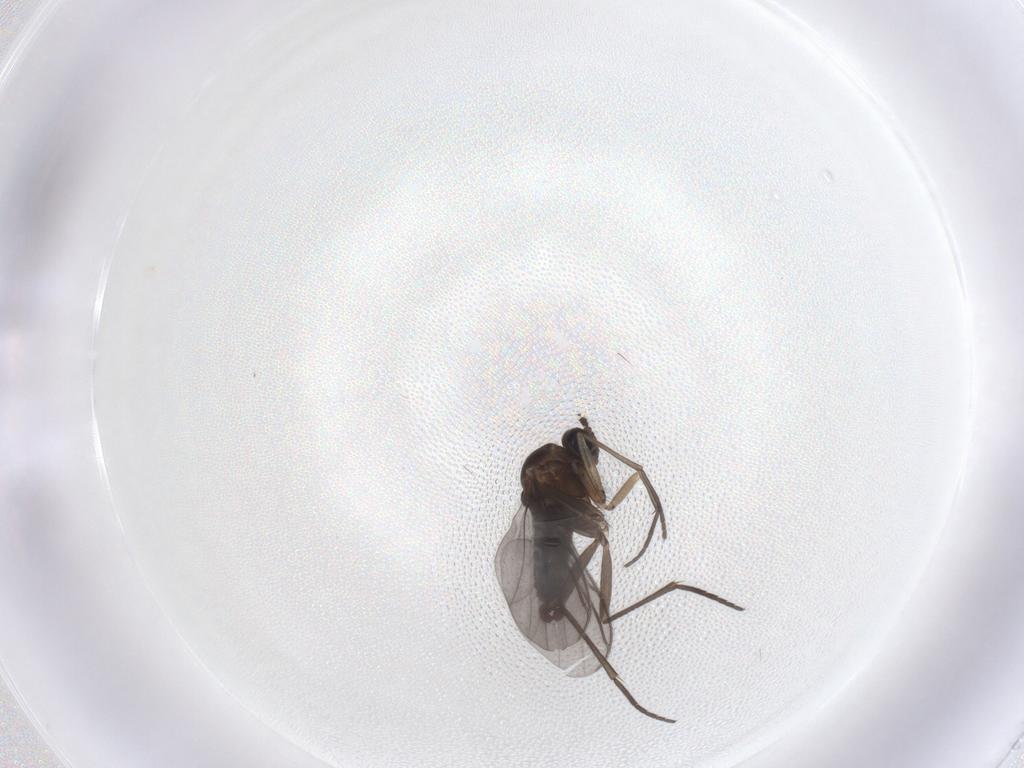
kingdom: Animalia
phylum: Arthropoda
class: Insecta
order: Diptera
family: Sciaridae
